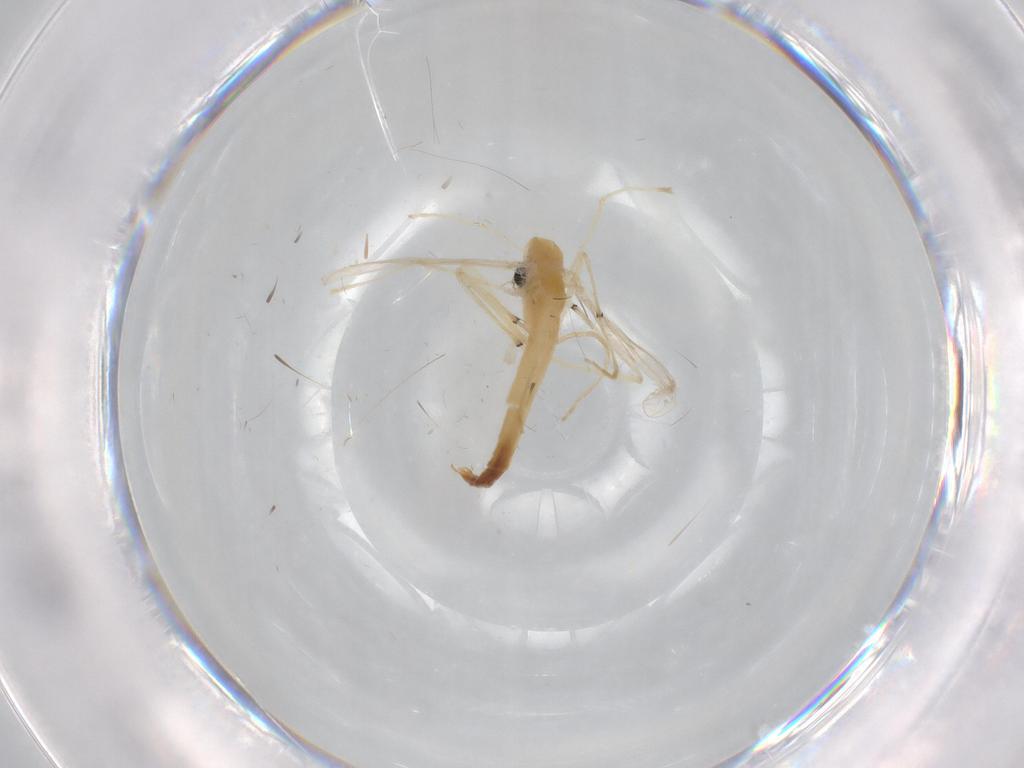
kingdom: Animalia
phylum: Arthropoda
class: Insecta
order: Diptera
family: Chironomidae
